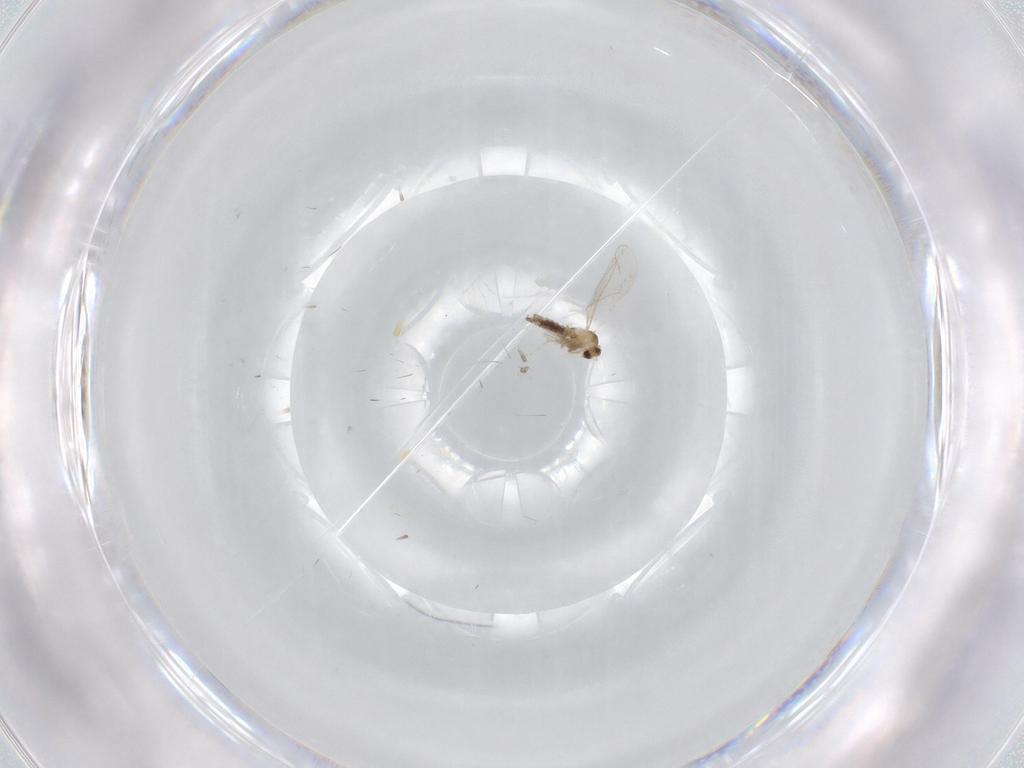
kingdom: Animalia
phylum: Arthropoda
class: Insecta
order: Diptera
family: Cecidomyiidae
